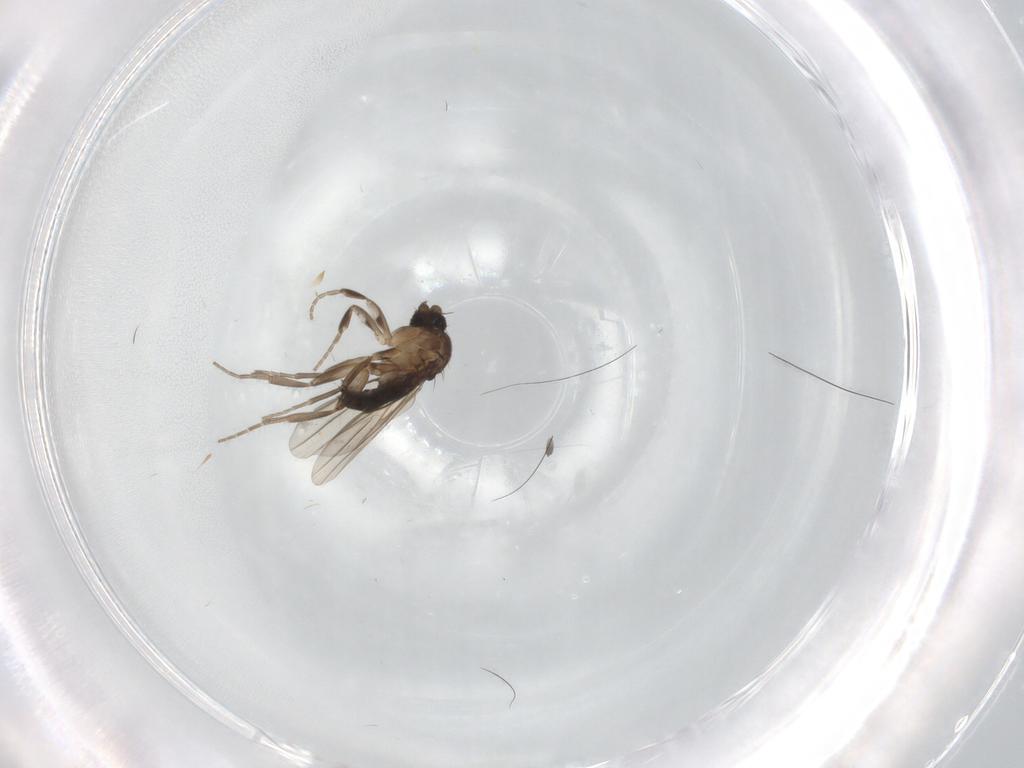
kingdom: Animalia
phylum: Arthropoda
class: Insecta
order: Diptera
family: Phoridae
